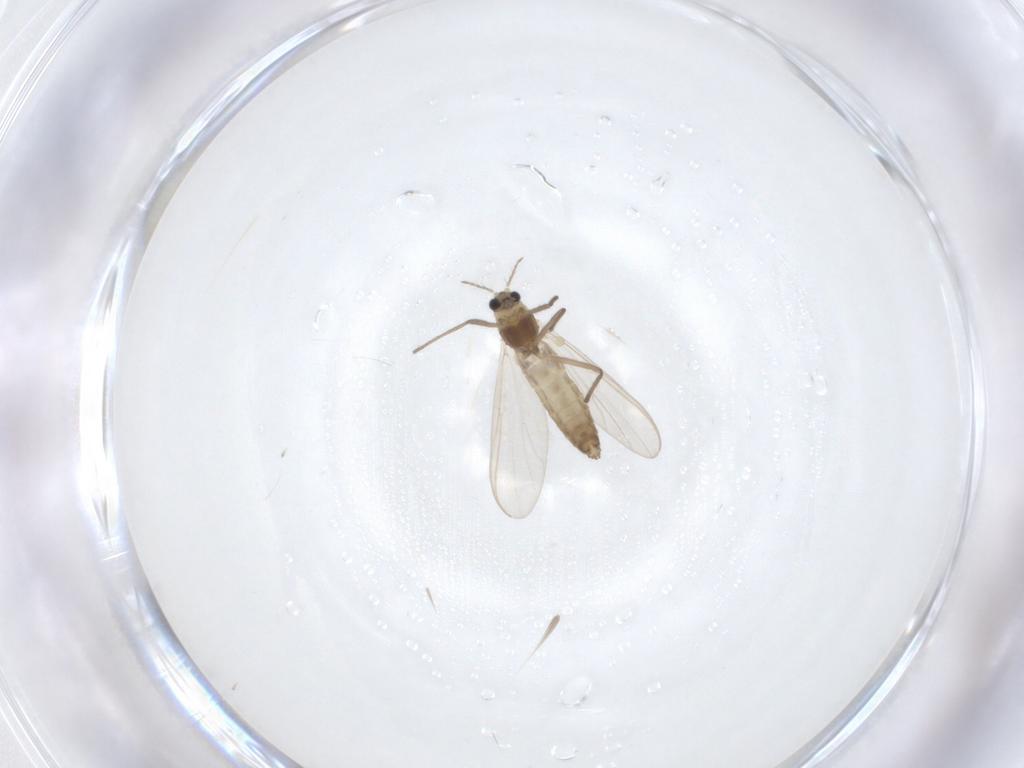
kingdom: Animalia
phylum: Arthropoda
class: Insecta
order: Diptera
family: Chironomidae
